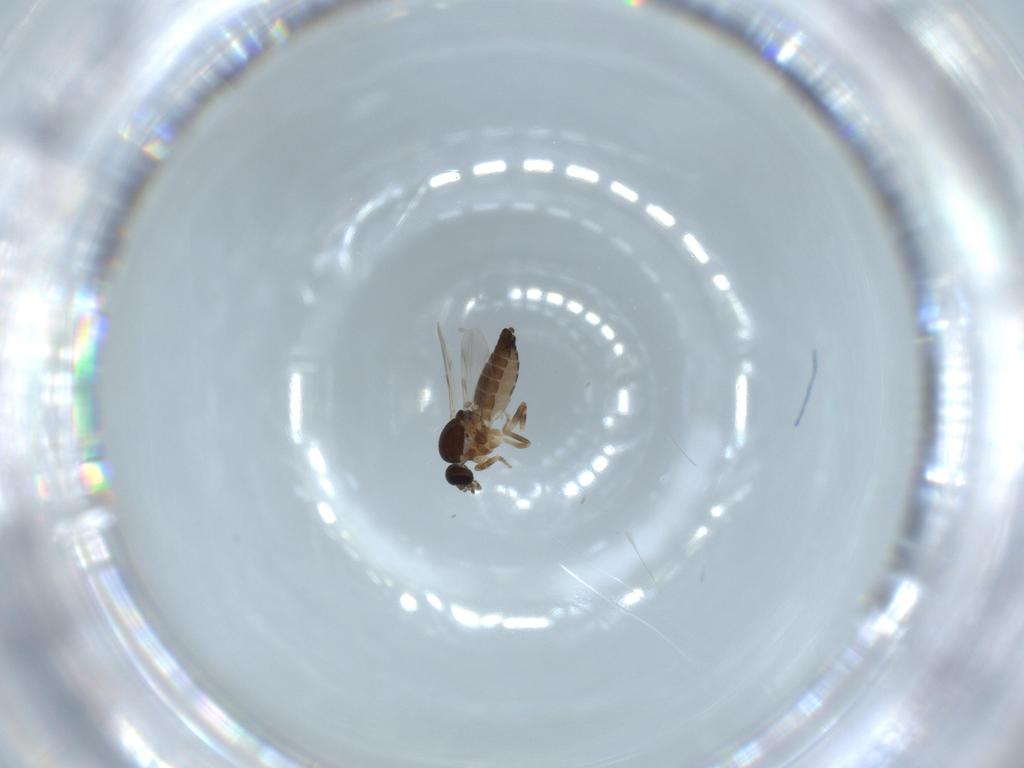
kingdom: Animalia
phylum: Arthropoda
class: Insecta
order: Diptera
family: Ceratopogonidae
